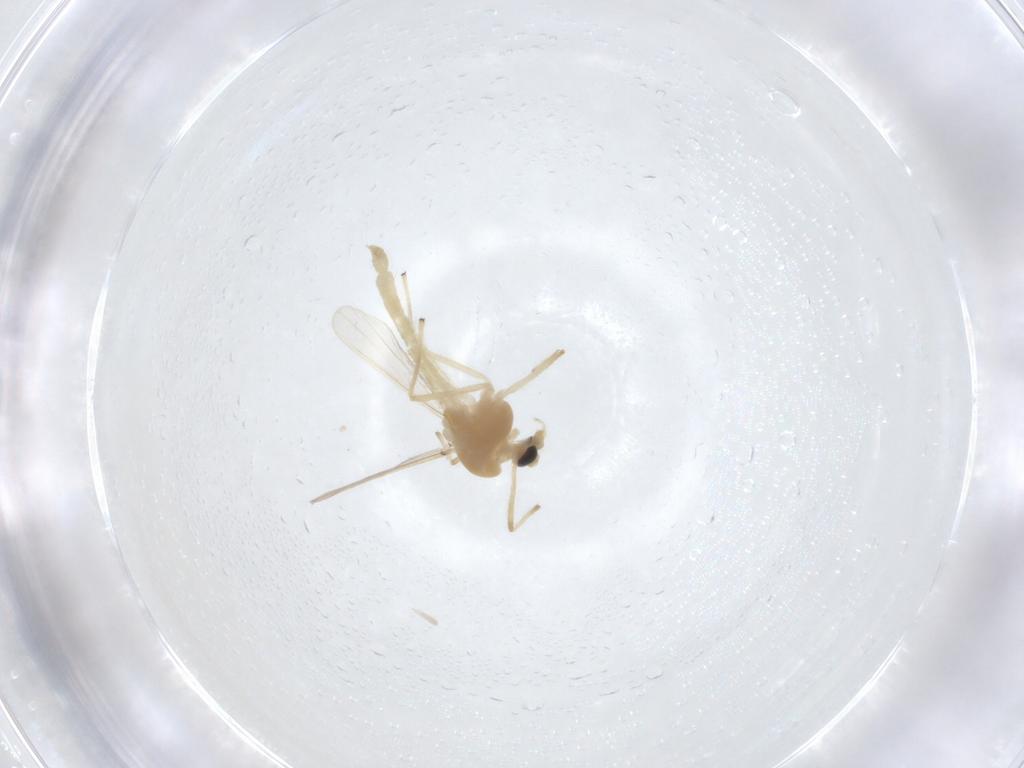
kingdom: Animalia
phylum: Arthropoda
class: Insecta
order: Diptera
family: Chironomidae
